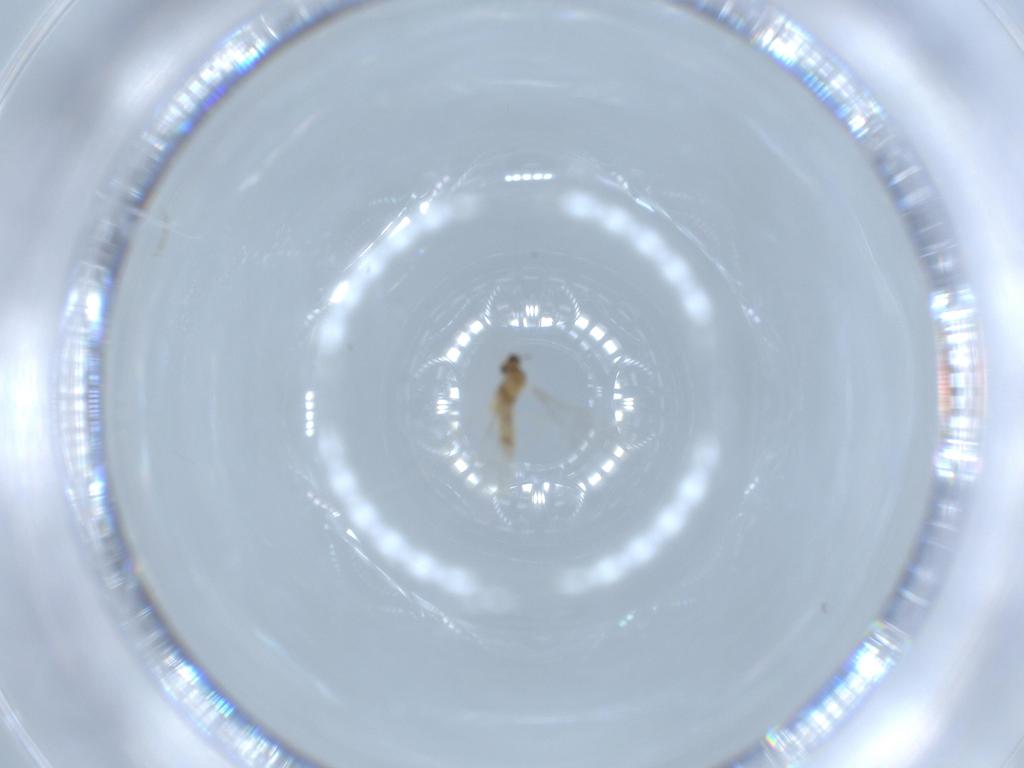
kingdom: Animalia
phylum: Arthropoda
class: Insecta
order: Diptera
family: Cecidomyiidae
